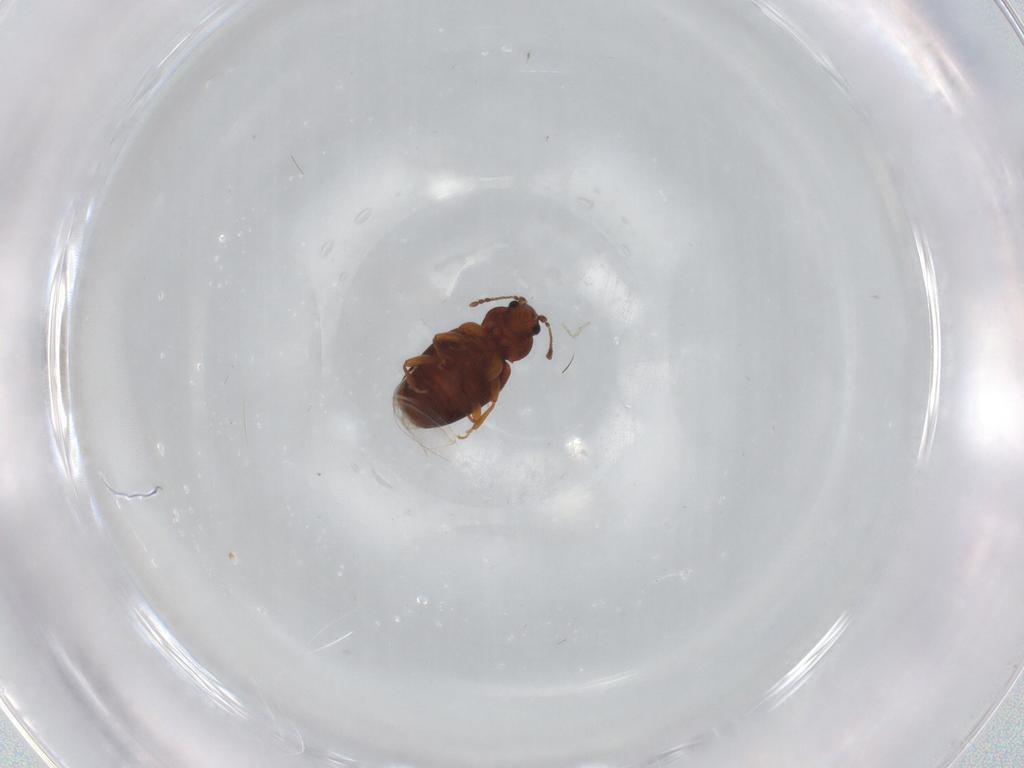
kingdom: Animalia
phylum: Arthropoda
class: Insecta
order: Coleoptera
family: Latridiidae
